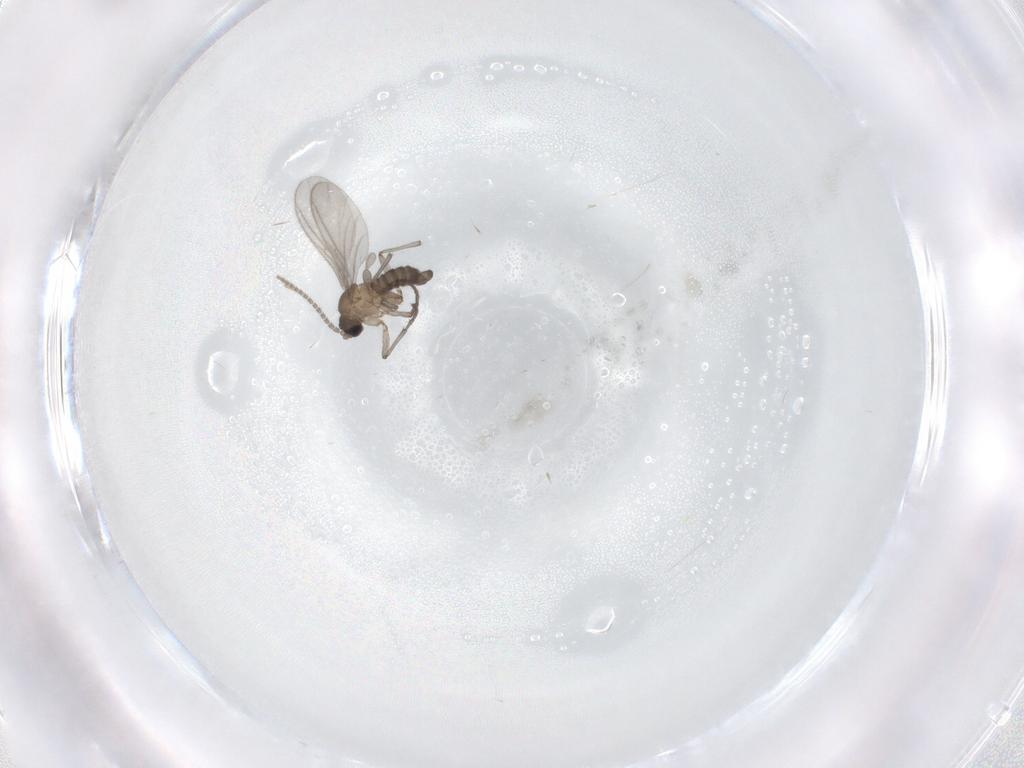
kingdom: Animalia
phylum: Arthropoda
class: Insecta
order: Diptera
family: Sciaridae
